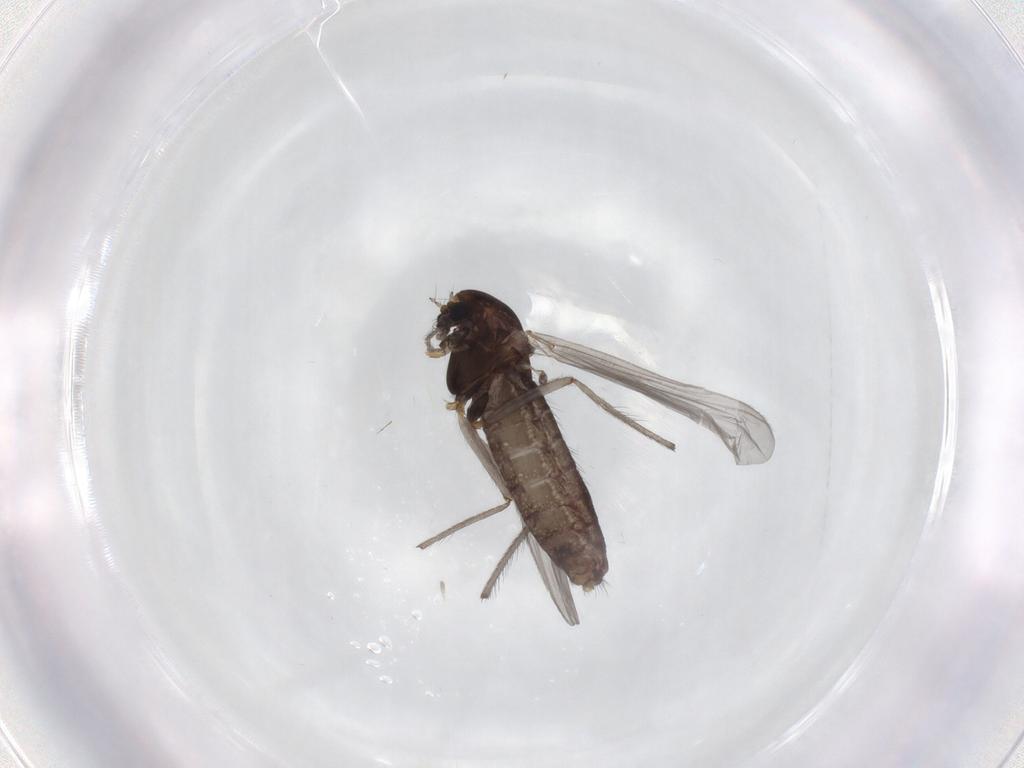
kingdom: Animalia
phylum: Arthropoda
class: Insecta
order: Diptera
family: Chironomidae
